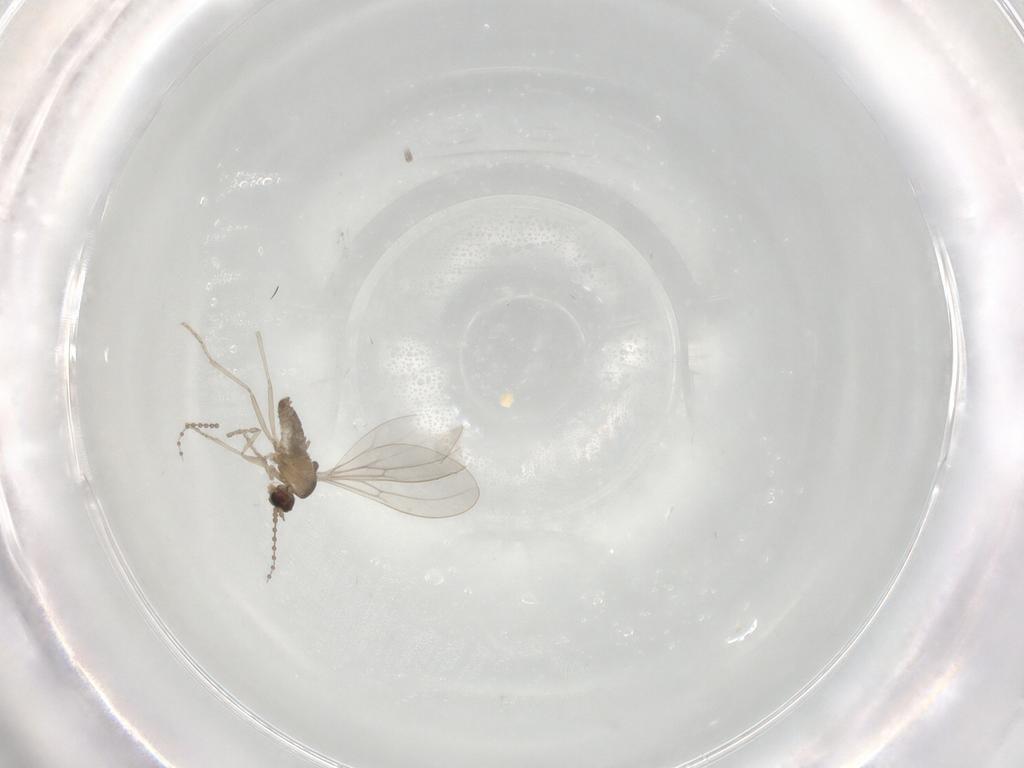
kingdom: Animalia
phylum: Arthropoda
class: Insecta
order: Diptera
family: Cecidomyiidae
